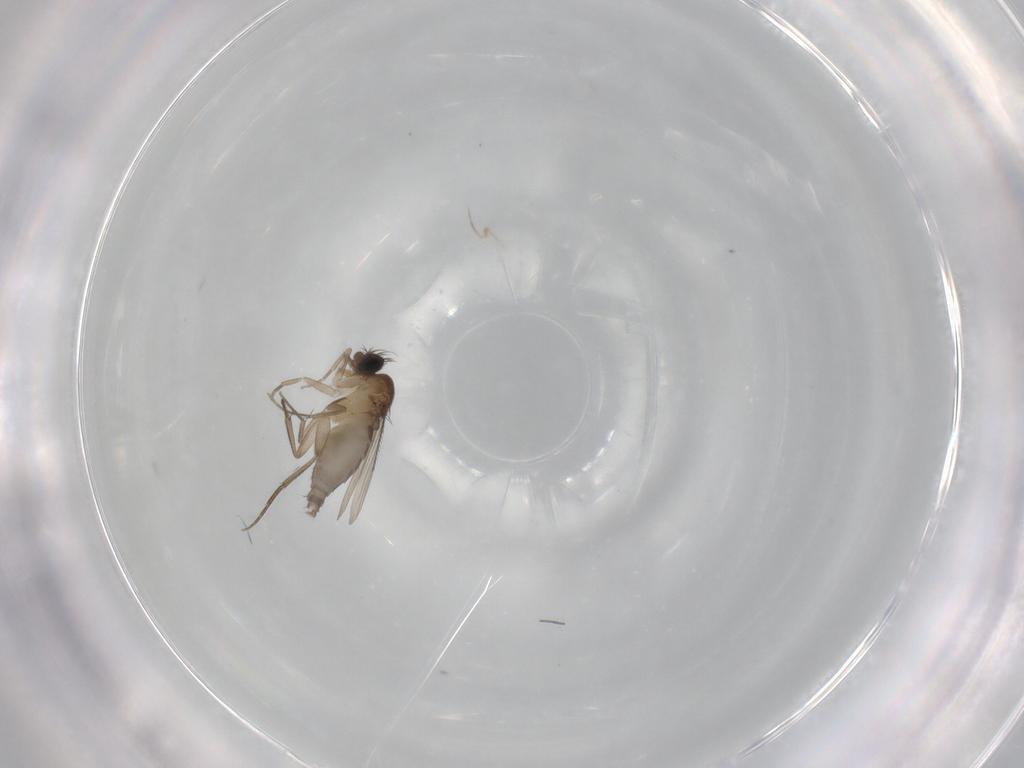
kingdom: Animalia
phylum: Arthropoda
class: Insecta
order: Diptera
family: Phoridae
